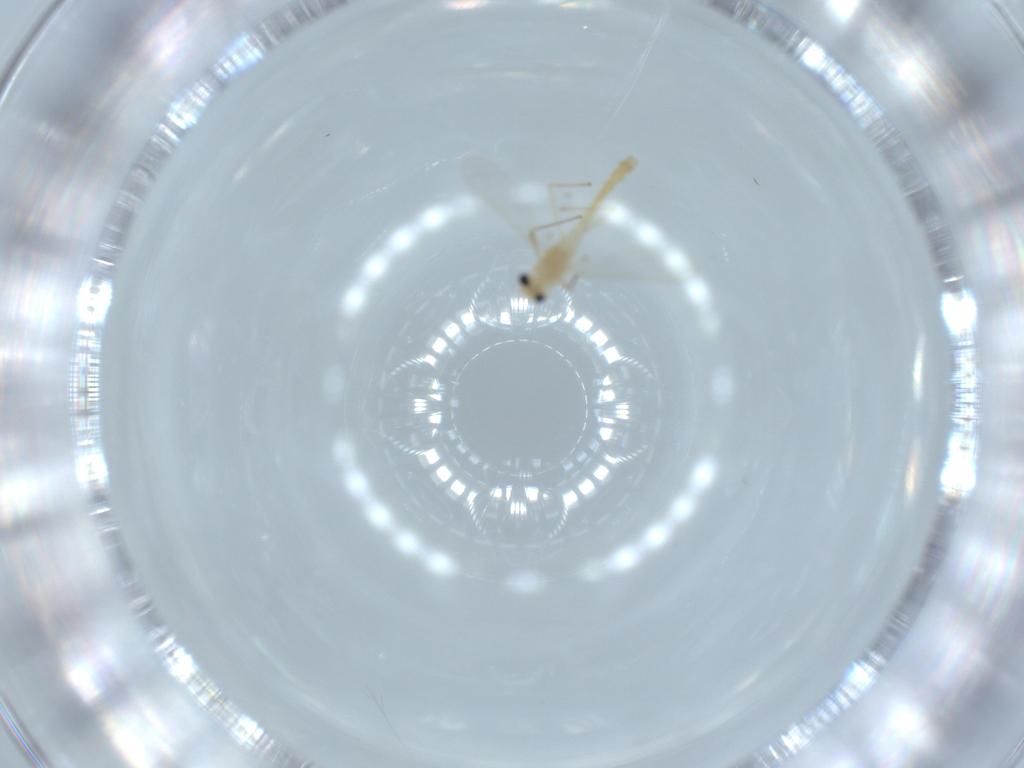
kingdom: Animalia
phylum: Arthropoda
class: Insecta
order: Diptera
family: Chironomidae
